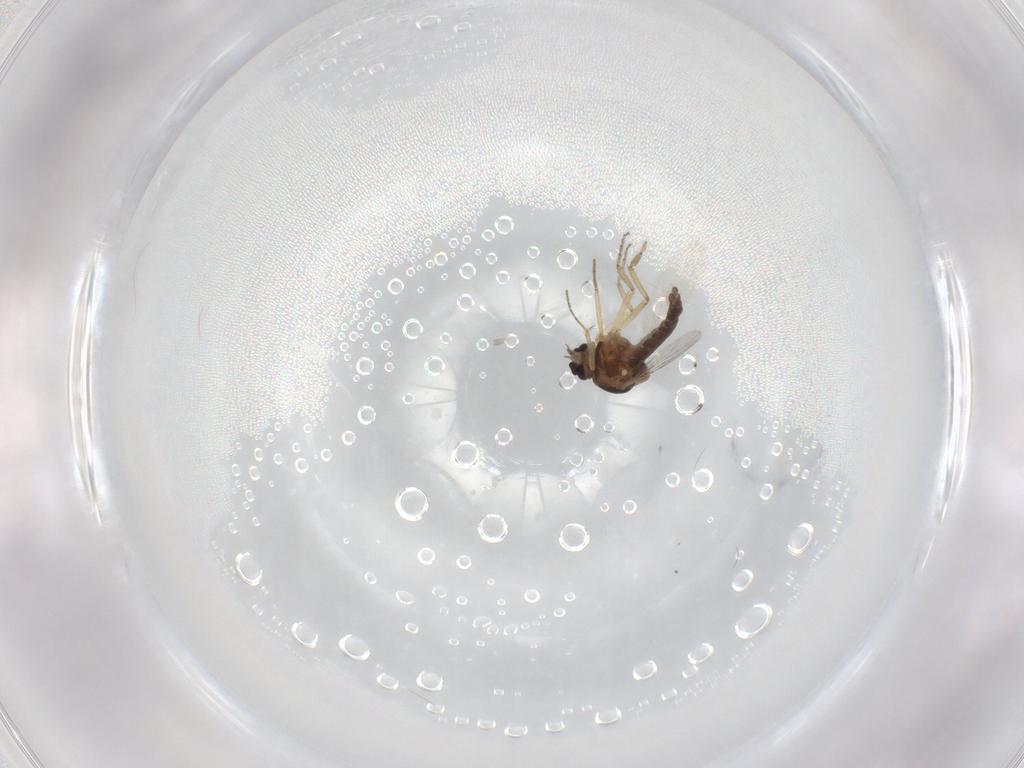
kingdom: Animalia
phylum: Arthropoda
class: Insecta
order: Diptera
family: Ceratopogonidae
